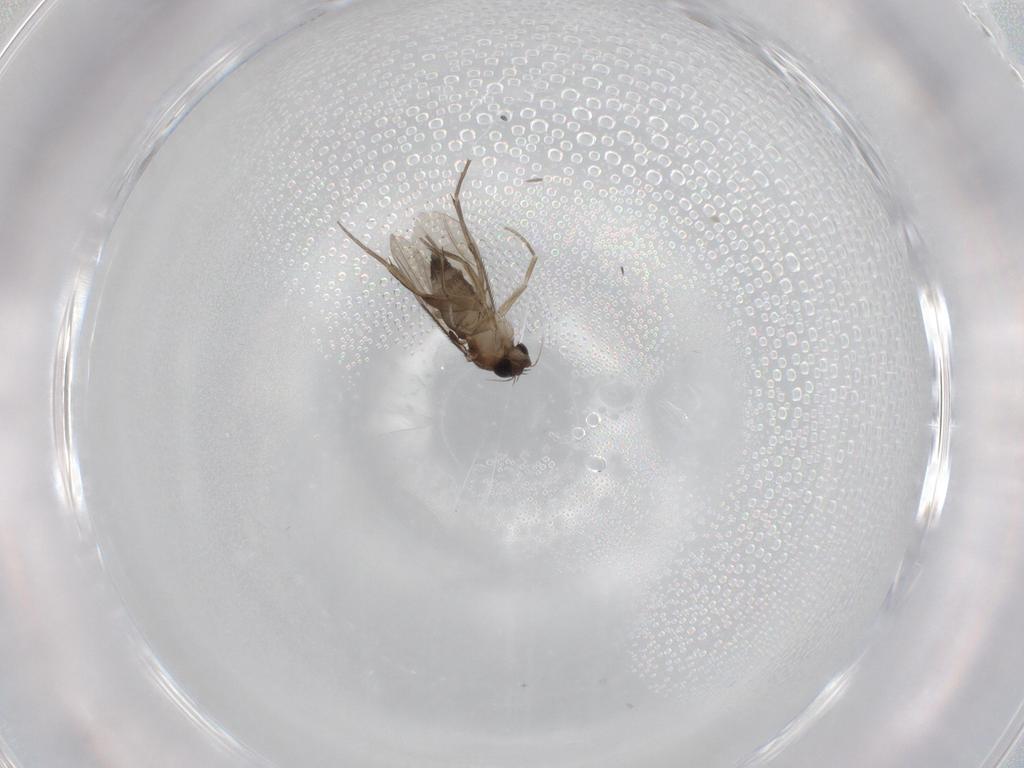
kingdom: Animalia
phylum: Arthropoda
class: Insecta
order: Diptera
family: Phoridae
